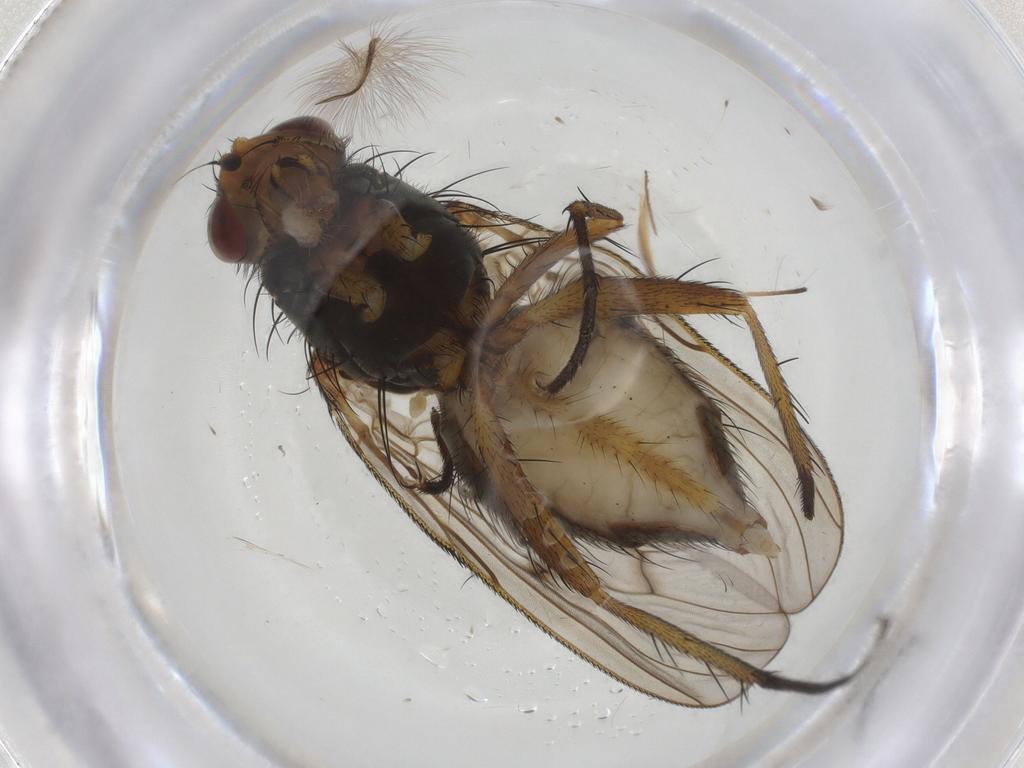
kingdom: Animalia
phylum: Arthropoda
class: Insecta
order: Diptera
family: Anthomyiidae
